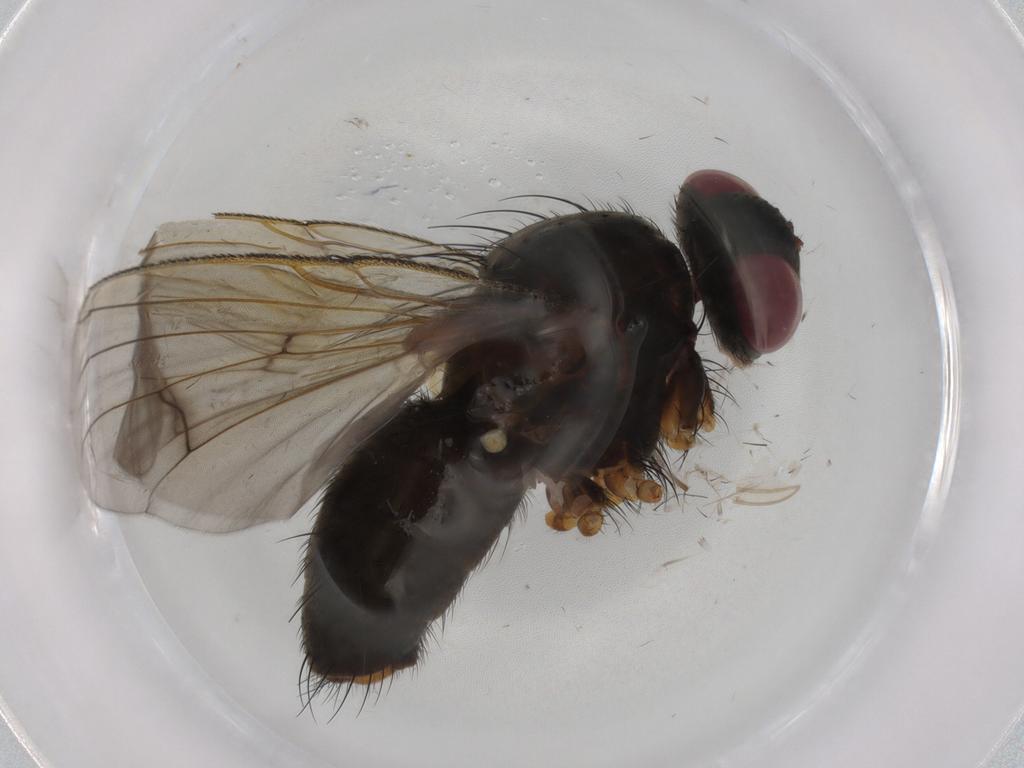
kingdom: Animalia
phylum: Arthropoda
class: Insecta
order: Diptera
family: Muscidae
